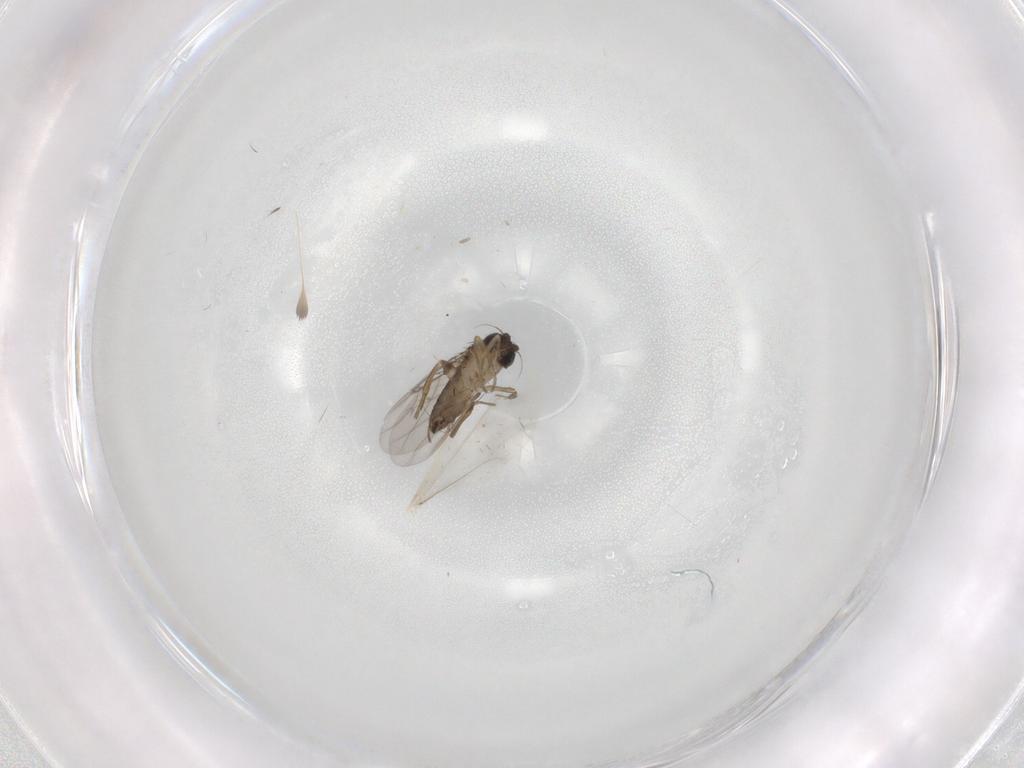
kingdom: Animalia
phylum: Arthropoda
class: Insecta
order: Diptera
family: Phoridae
